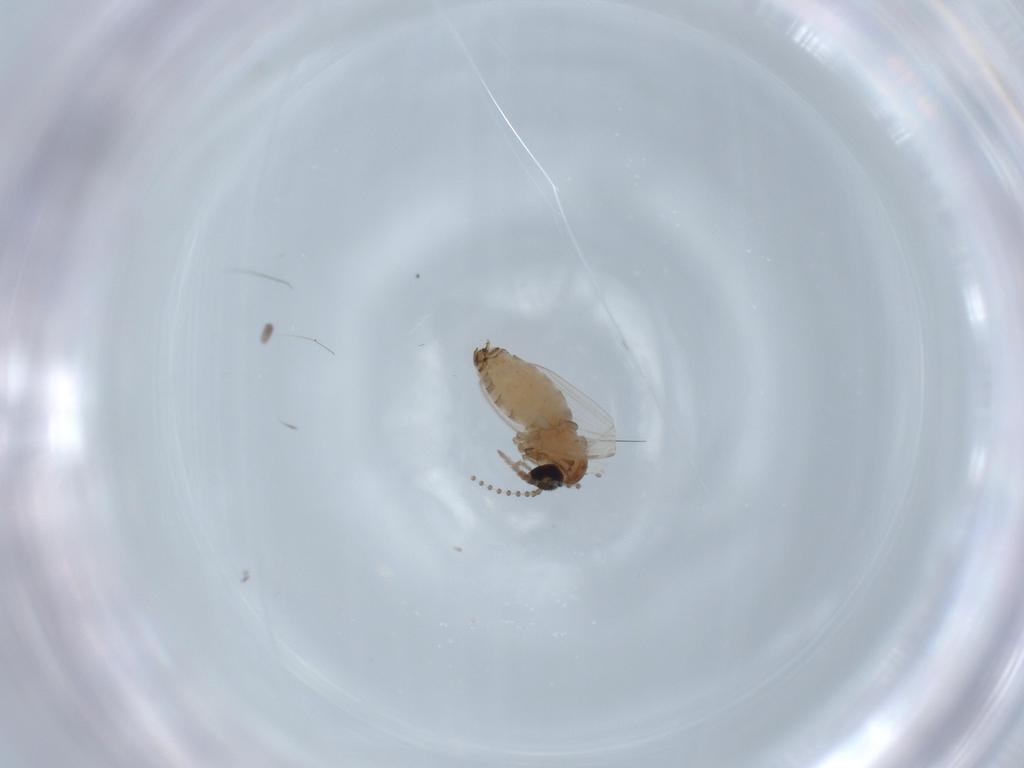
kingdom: Animalia
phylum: Arthropoda
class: Insecta
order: Diptera
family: Psychodidae
